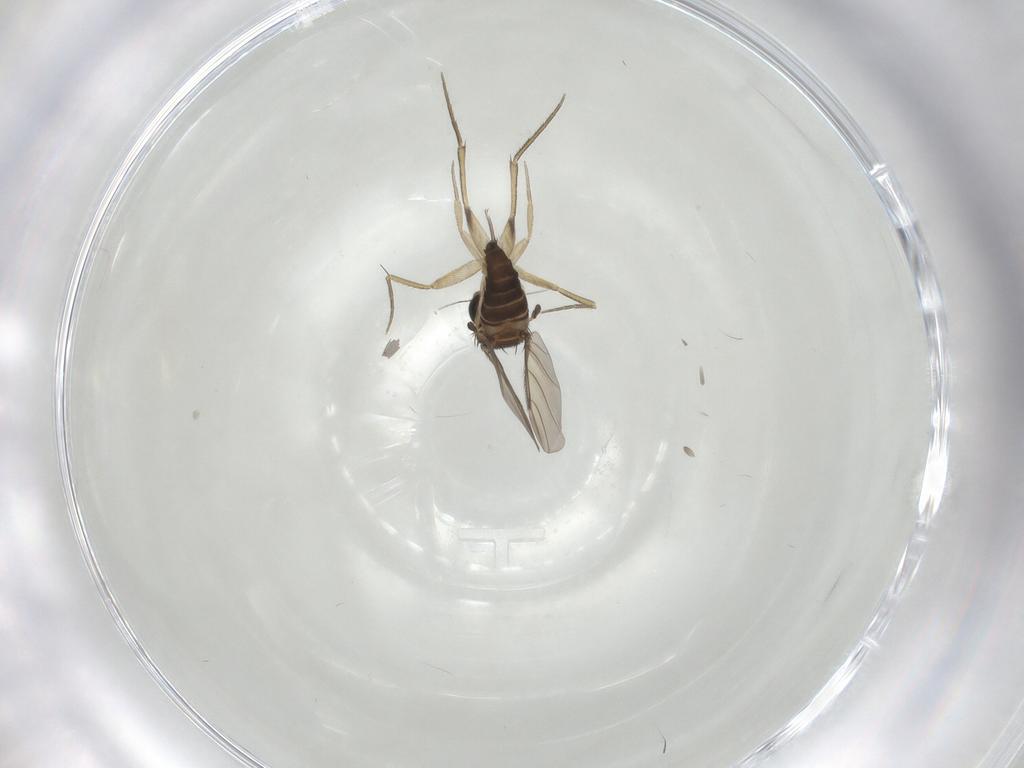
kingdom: Animalia
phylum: Arthropoda
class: Insecta
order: Diptera
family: Phoridae
